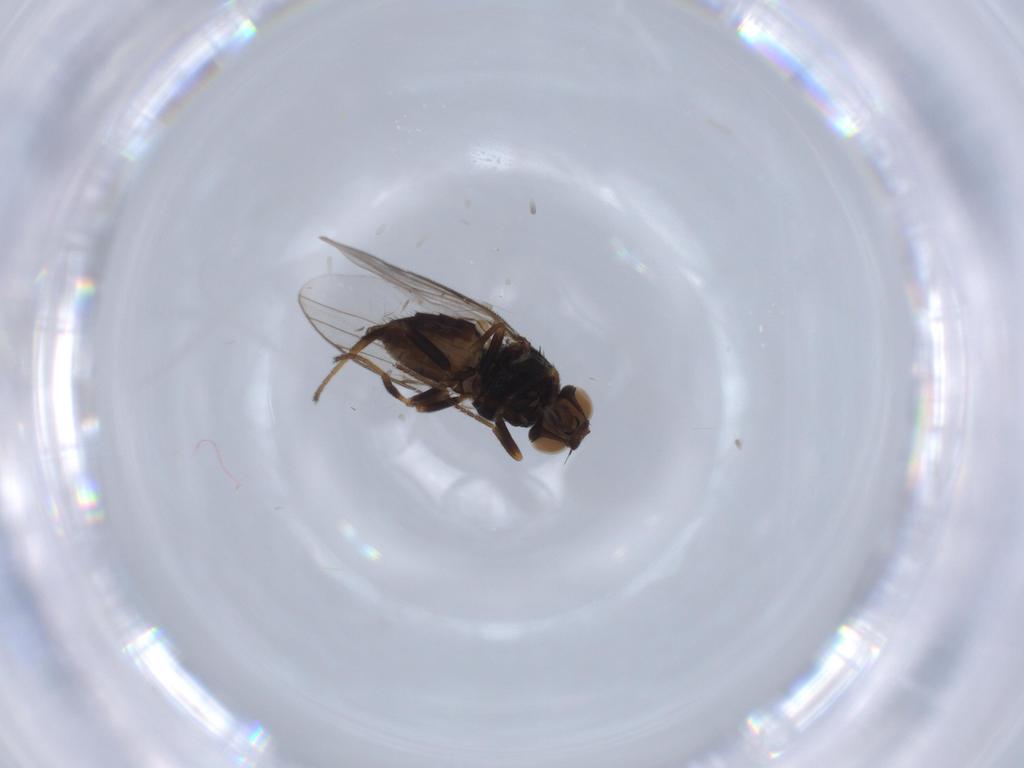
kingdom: Animalia
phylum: Arthropoda
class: Insecta
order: Diptera
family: Chloropidae
